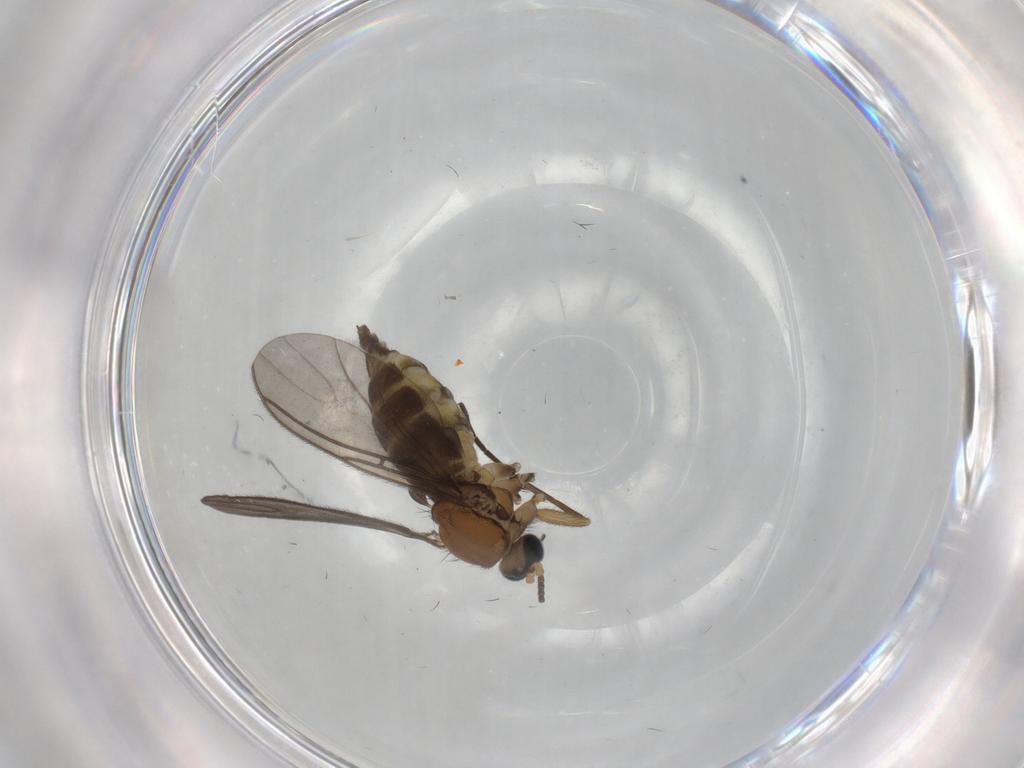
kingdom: Animalia
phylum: Arthropoda
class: Insecta
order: Diptera
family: Sciaridae
